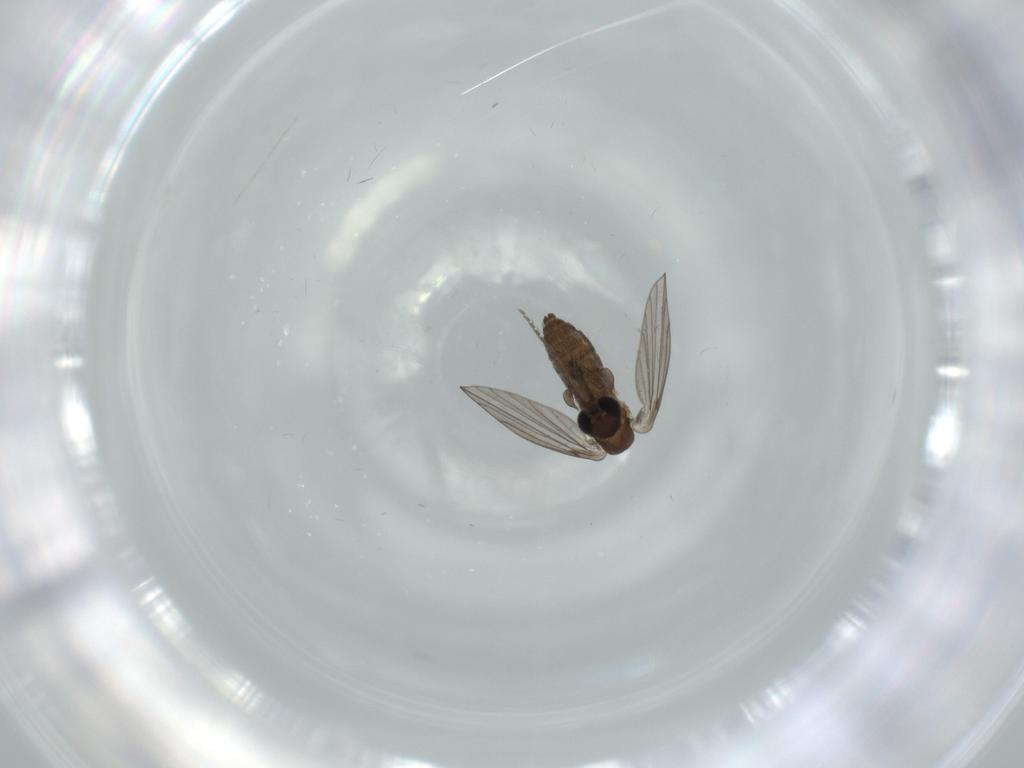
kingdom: Animalia
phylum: Arthropoda
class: Insecta
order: Diptera
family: Psychodidae
